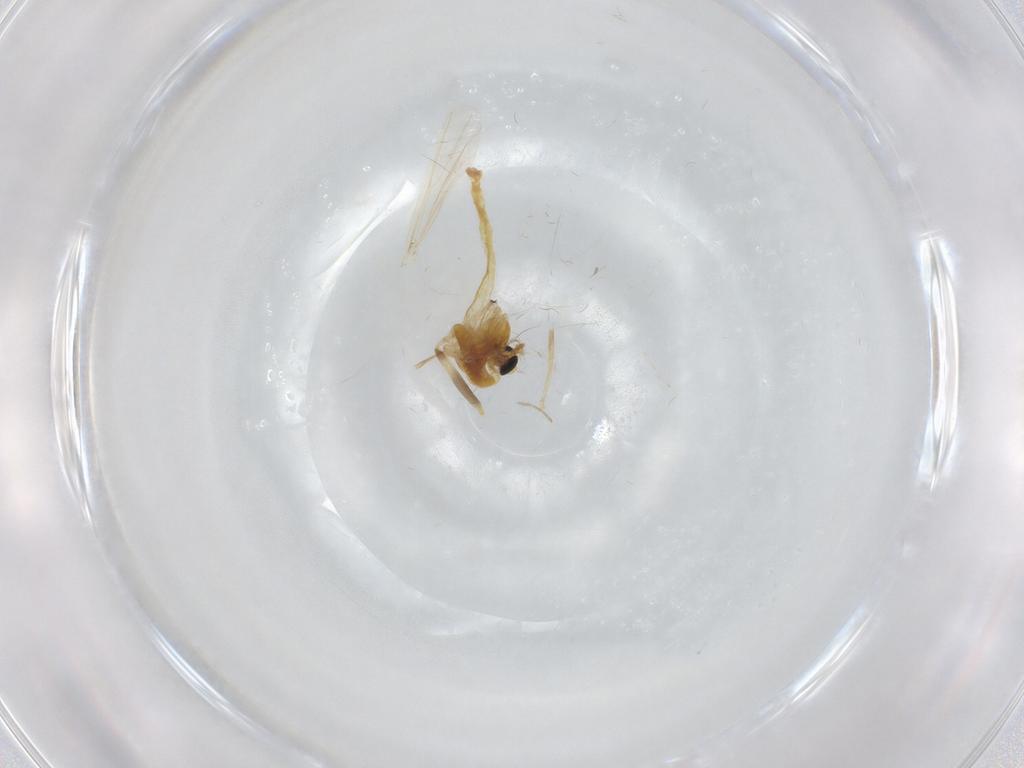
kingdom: Animalia
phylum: Arthropoda
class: Insecta
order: Diptera
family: Chironomidae
